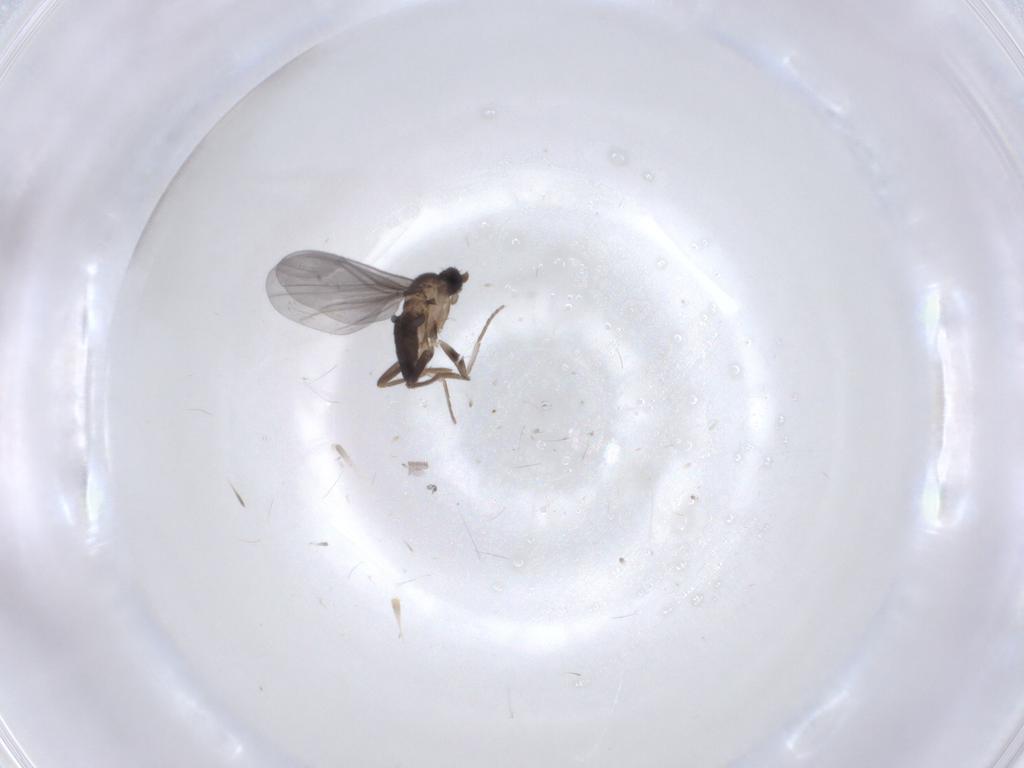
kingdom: Animalia
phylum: Arthropoda
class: Insecta
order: Diptera
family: Phoridae
